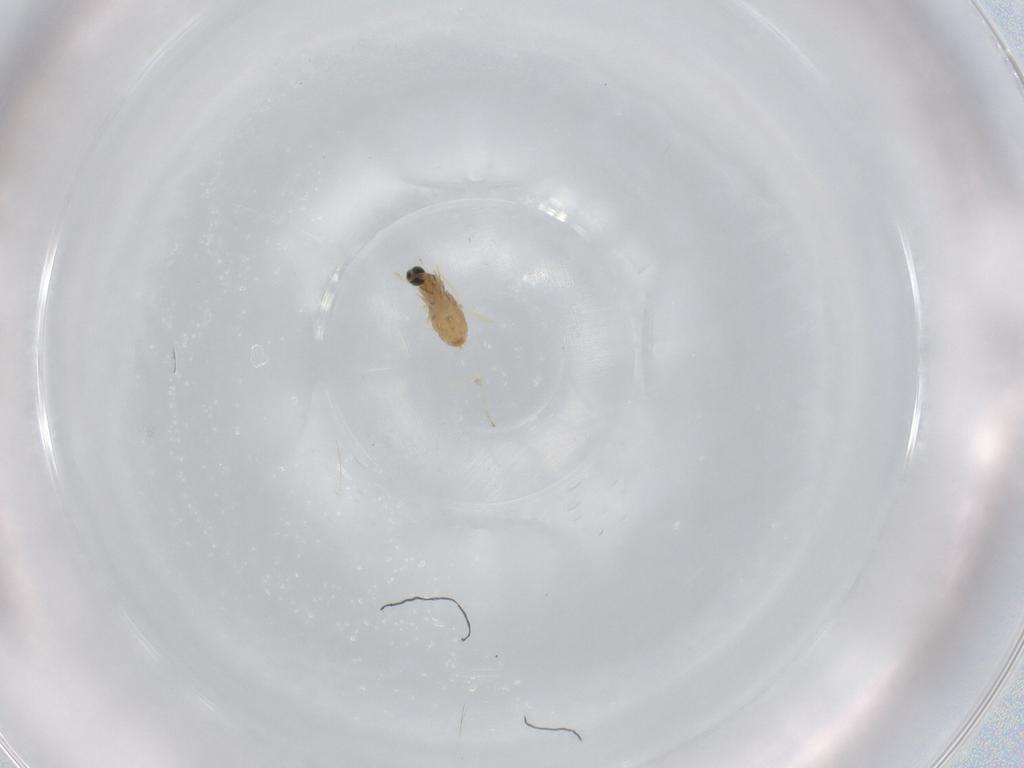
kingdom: Animalia
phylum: Arthropoda
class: Insecta
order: Diptera
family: Cecidomyiidae
